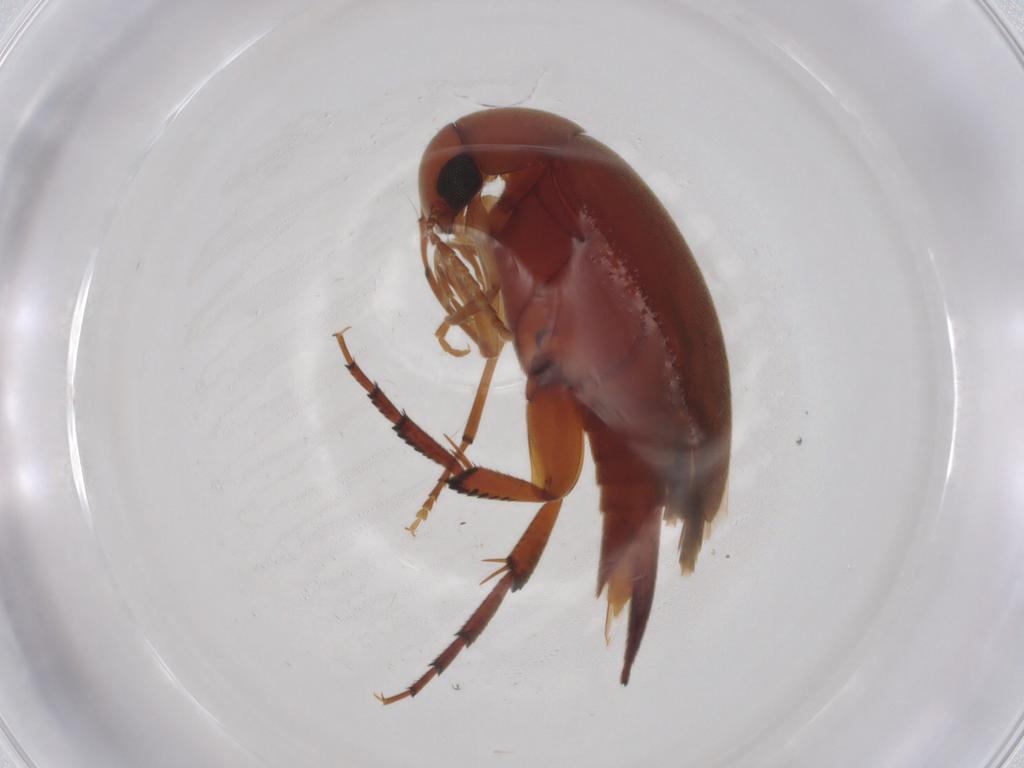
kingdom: Animalia
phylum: Arthropoda
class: Insecta
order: Coleoptera
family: Mordellidae
